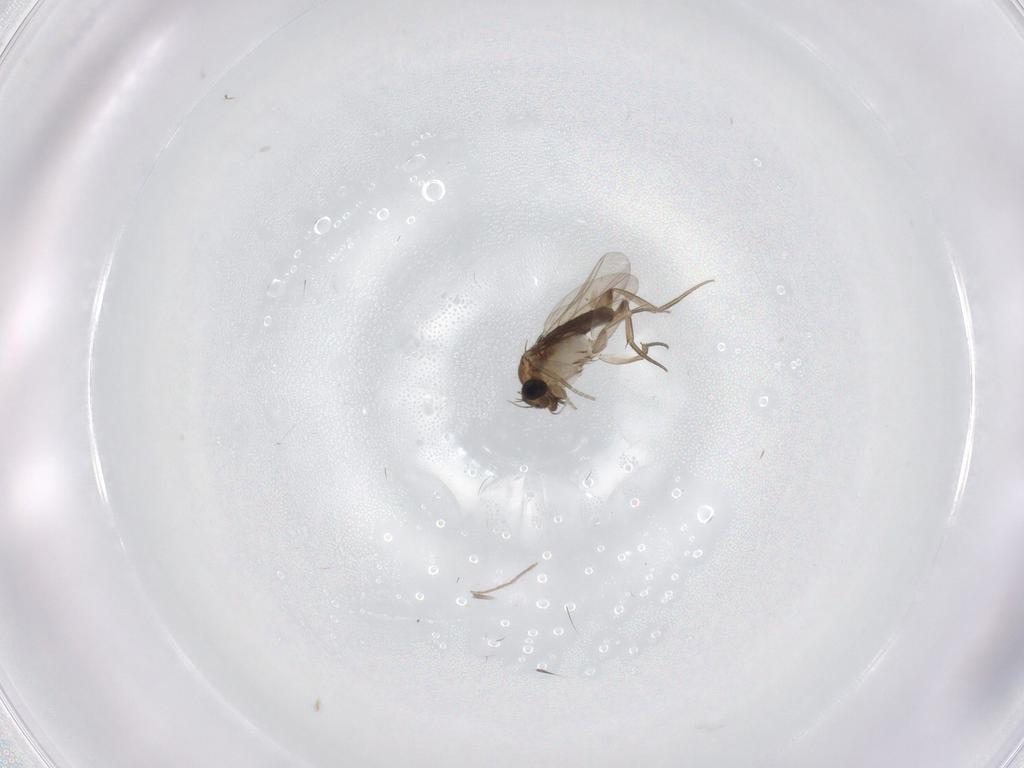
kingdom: Animalia
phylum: Arthropoda
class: Insecta
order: Diptera
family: Phoridae
